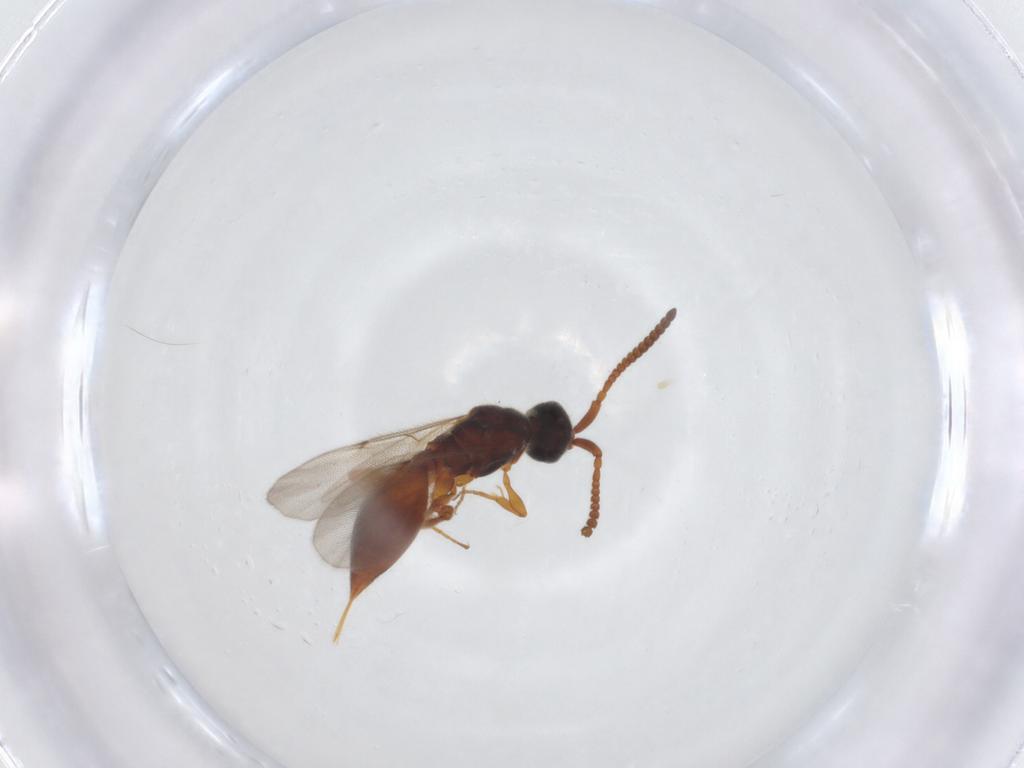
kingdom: Animalia
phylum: Arthropoda
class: Insecta
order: Hymenoptera
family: Diapriidae
